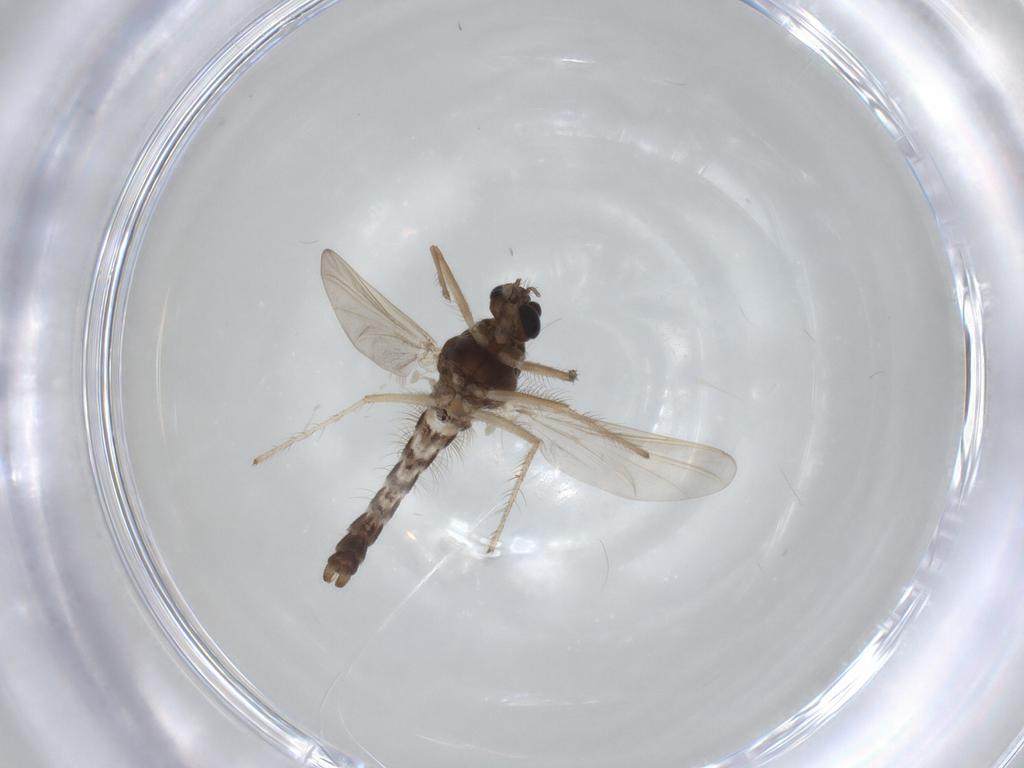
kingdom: Animalia
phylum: Arthropoda
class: Insecta
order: Diptera
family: Chironomidae
